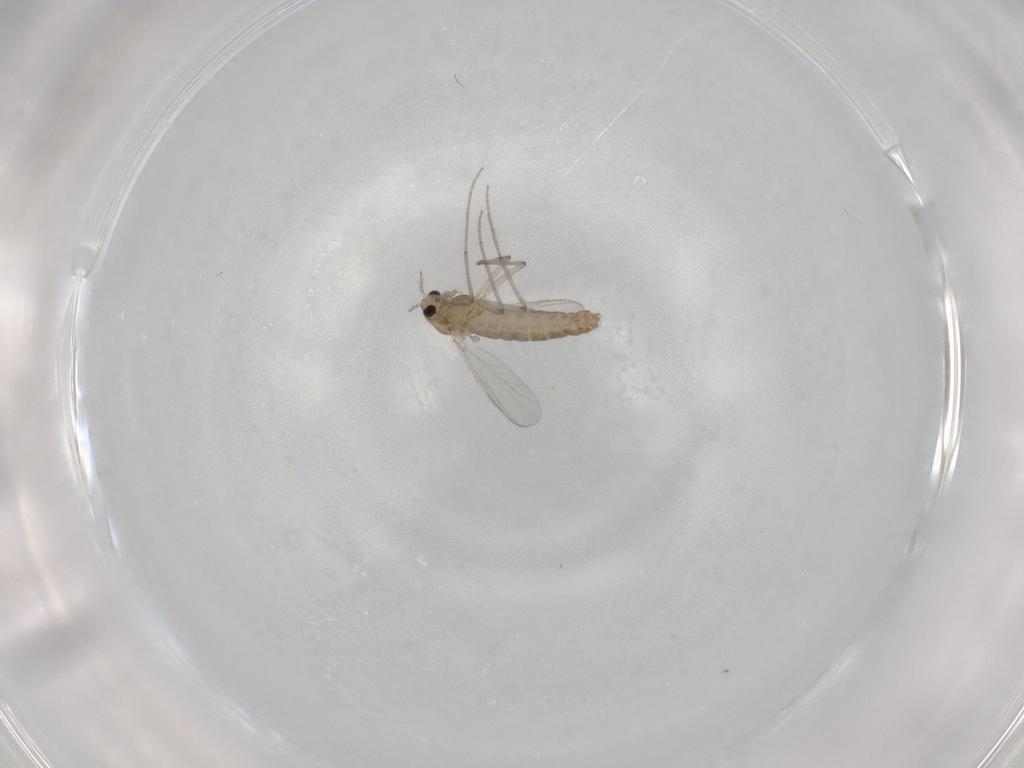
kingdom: Animalia
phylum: Arthropoda
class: Insecta
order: Diptera
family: Chironomidae
